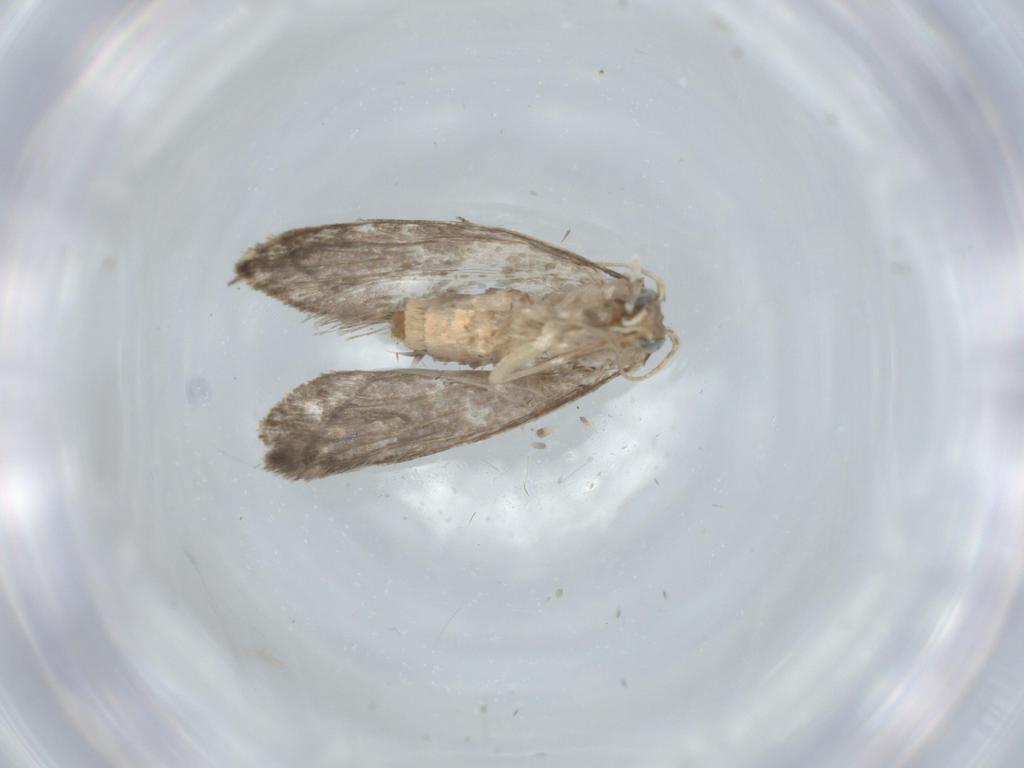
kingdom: Animalia
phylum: Arthropoda
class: Insecta
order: Lepidoptera
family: Tineidae
